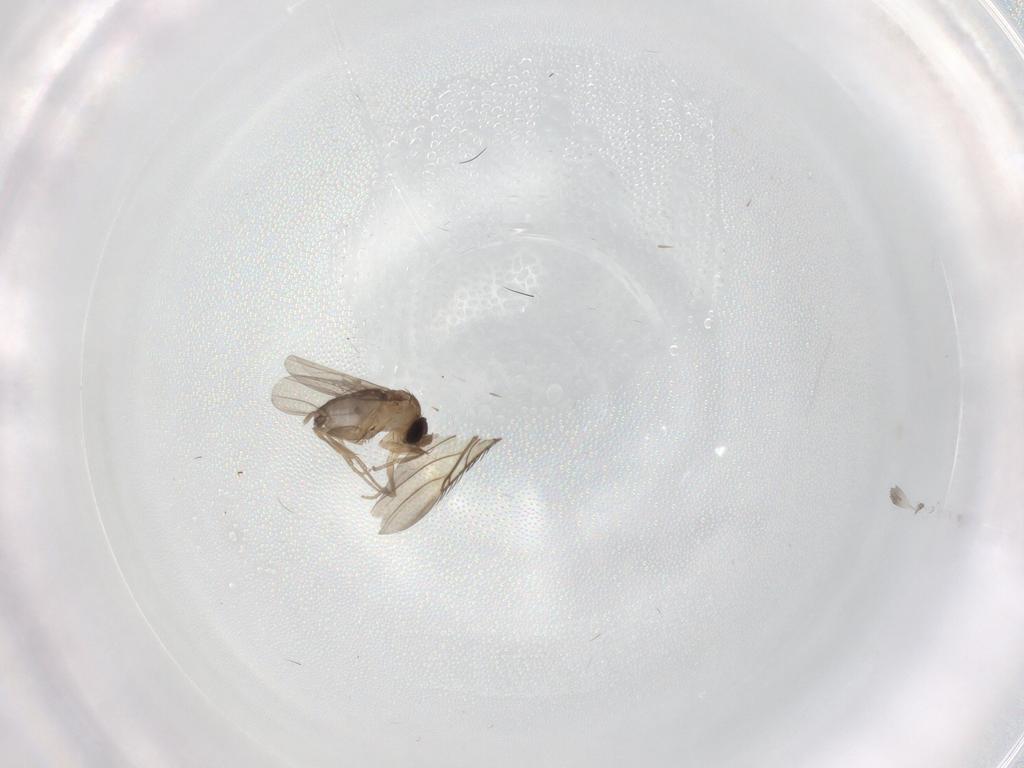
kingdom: Animalia
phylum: Arthropoda
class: Insecta
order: Diptera
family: Phoridae
